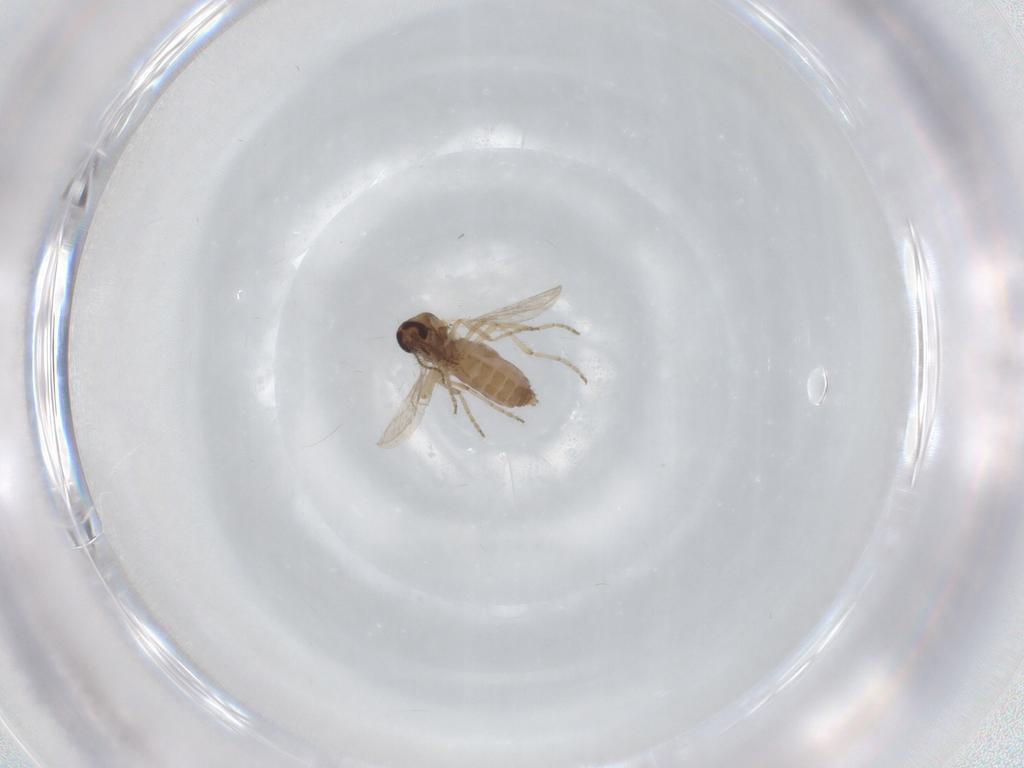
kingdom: Animalia
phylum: Arthropoda
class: Insecta
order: Diptera
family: Ceratopogonidae
